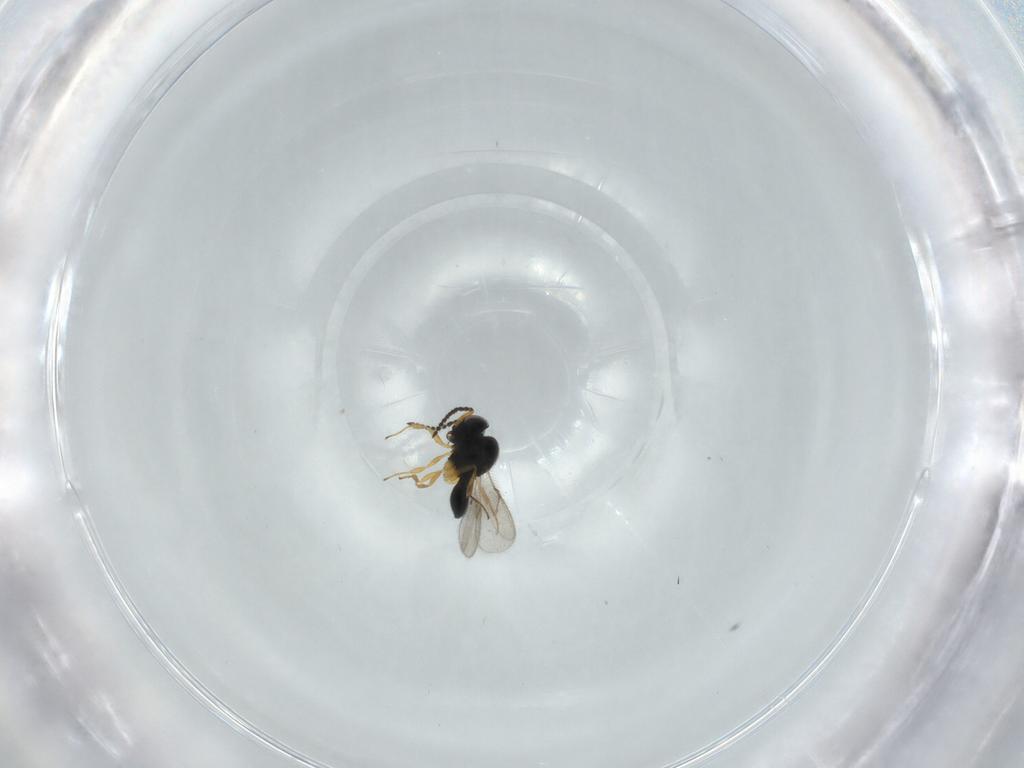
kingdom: Animalia
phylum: Arthropoda
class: Insecta
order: Hymenoptera
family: Scelionidae
